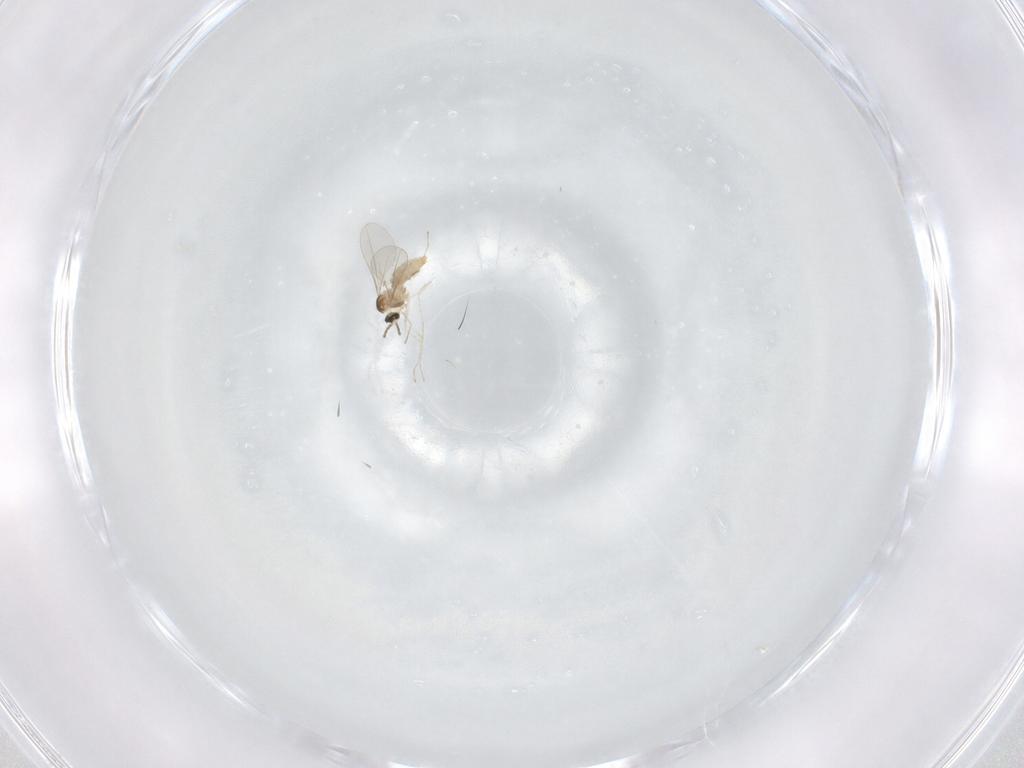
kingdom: Animalia
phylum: Arthropoda
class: Insecta
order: Diptera
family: Cecidomyiidae
